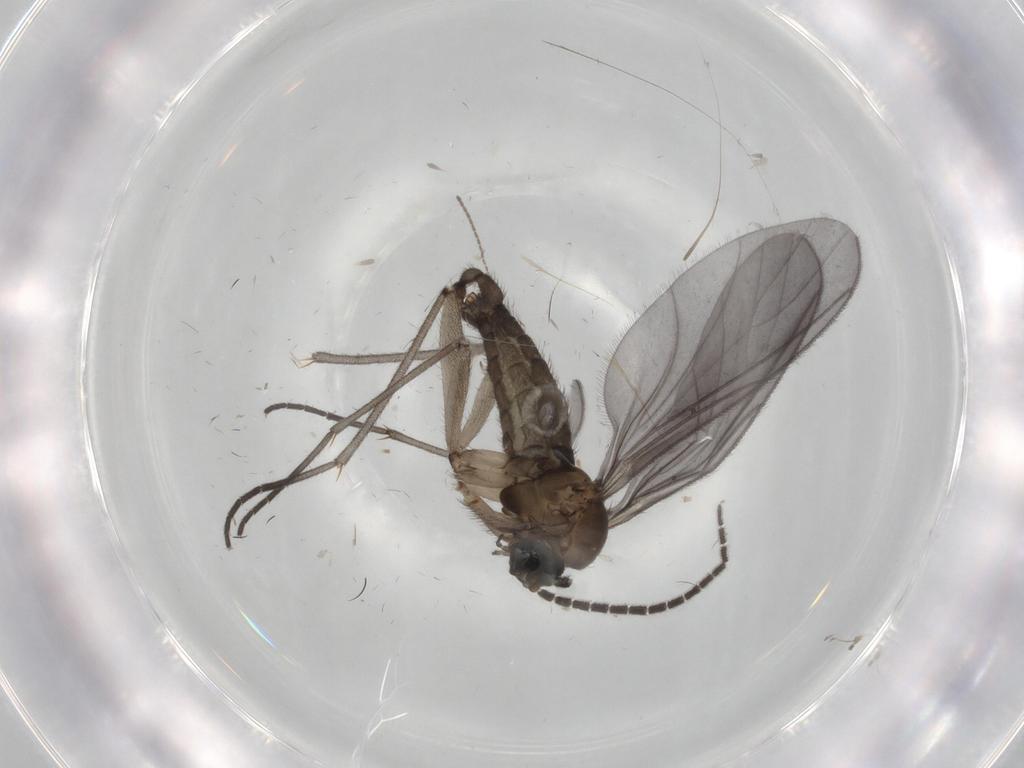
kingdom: Animalia
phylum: Arthropoda
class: Insecta
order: Diptera
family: Sciaridae
